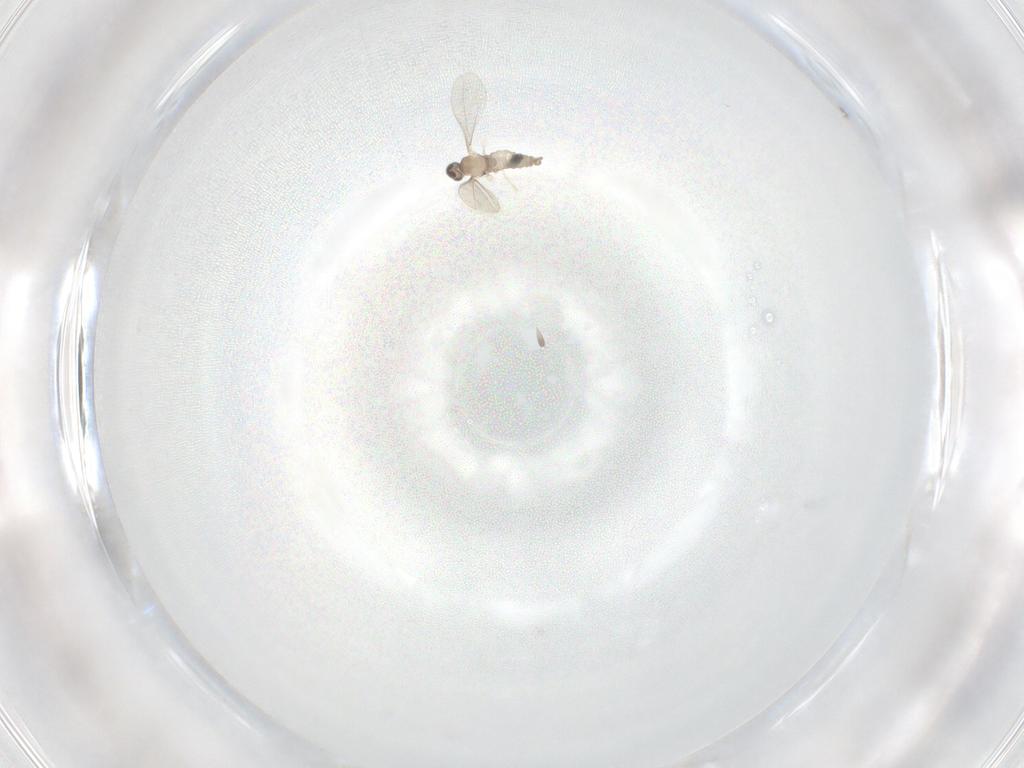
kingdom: Animalia
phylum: Arthropoda
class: Insecta
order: Diptera
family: Cecidomyiidae
